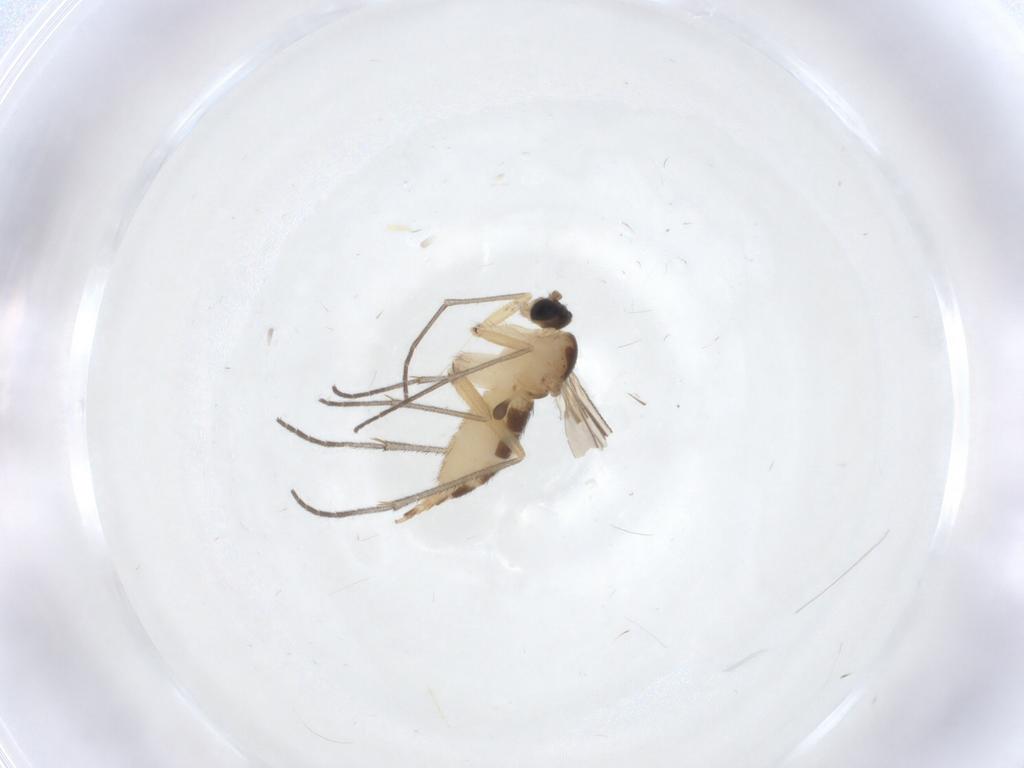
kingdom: Animalia
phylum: Arthropoda
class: Insecta
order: Diptera
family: Sciaridae
